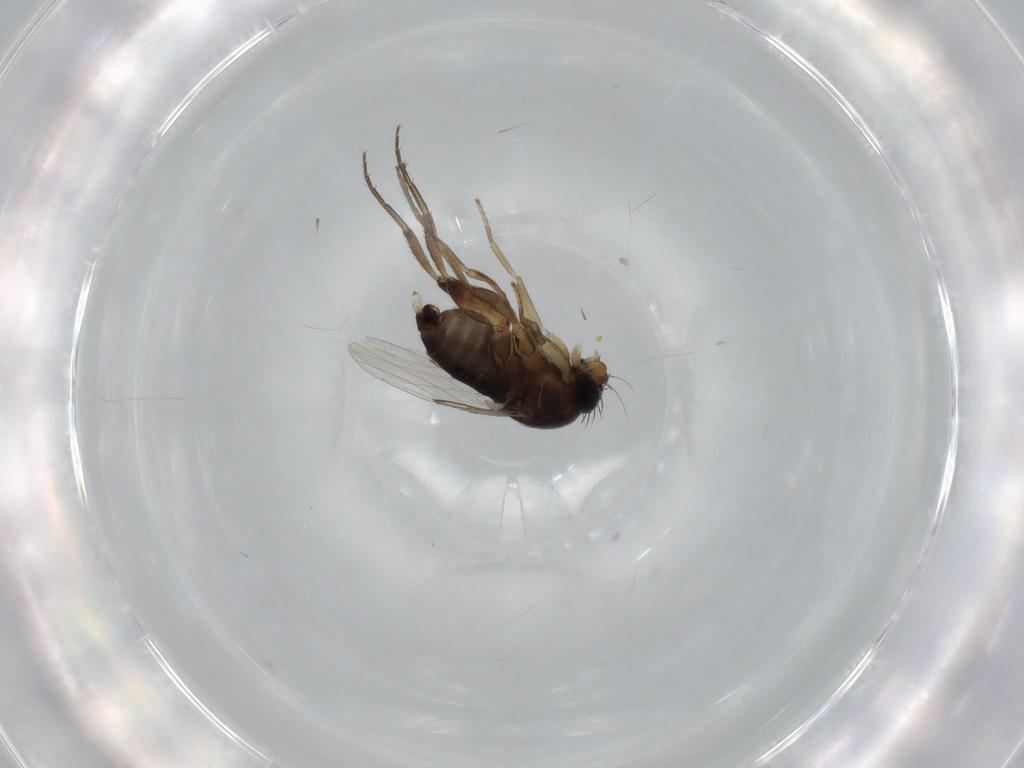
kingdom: Animalia
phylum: Arthropoda
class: Insecta
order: Diptera
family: Phoridae
